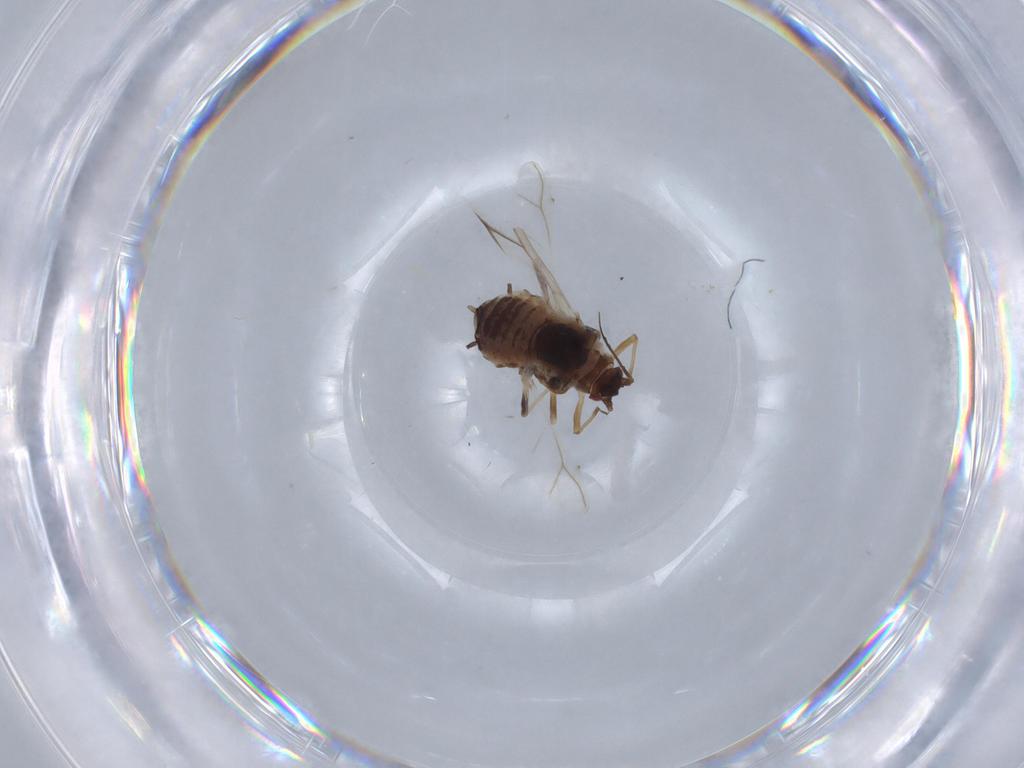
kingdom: Animalia
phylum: Arthropoda
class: Insecta
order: Hemiptera
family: Aphididae
